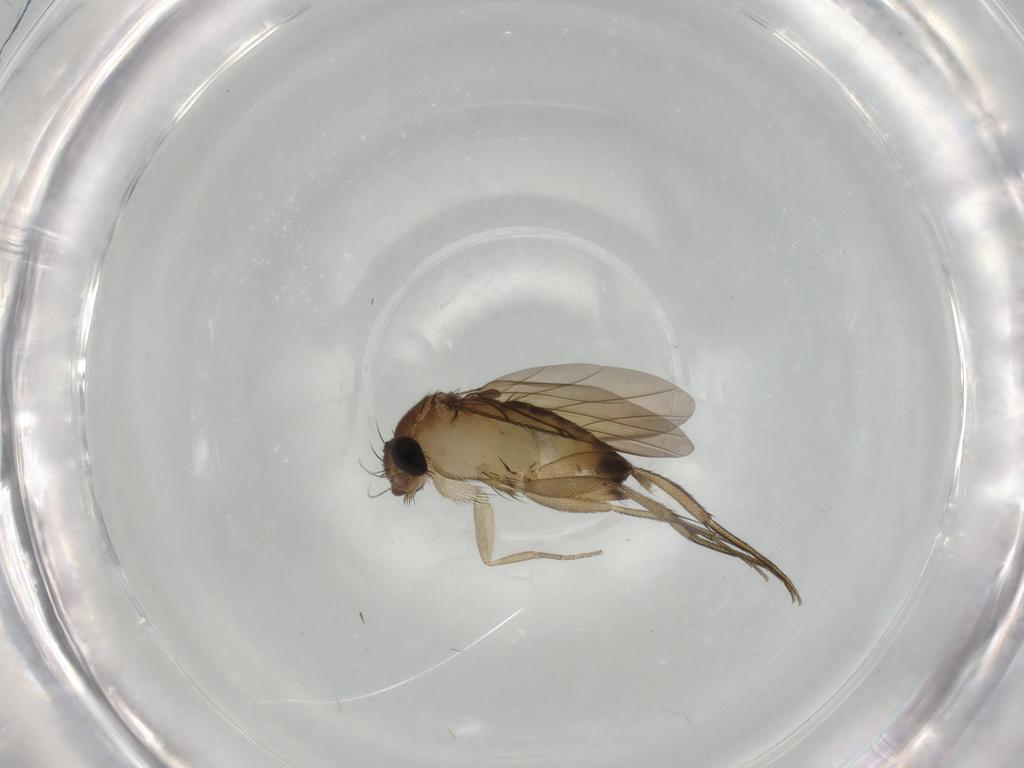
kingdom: Animalia
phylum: Arthropoda
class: Insecta
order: Diptera
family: Phoridae
